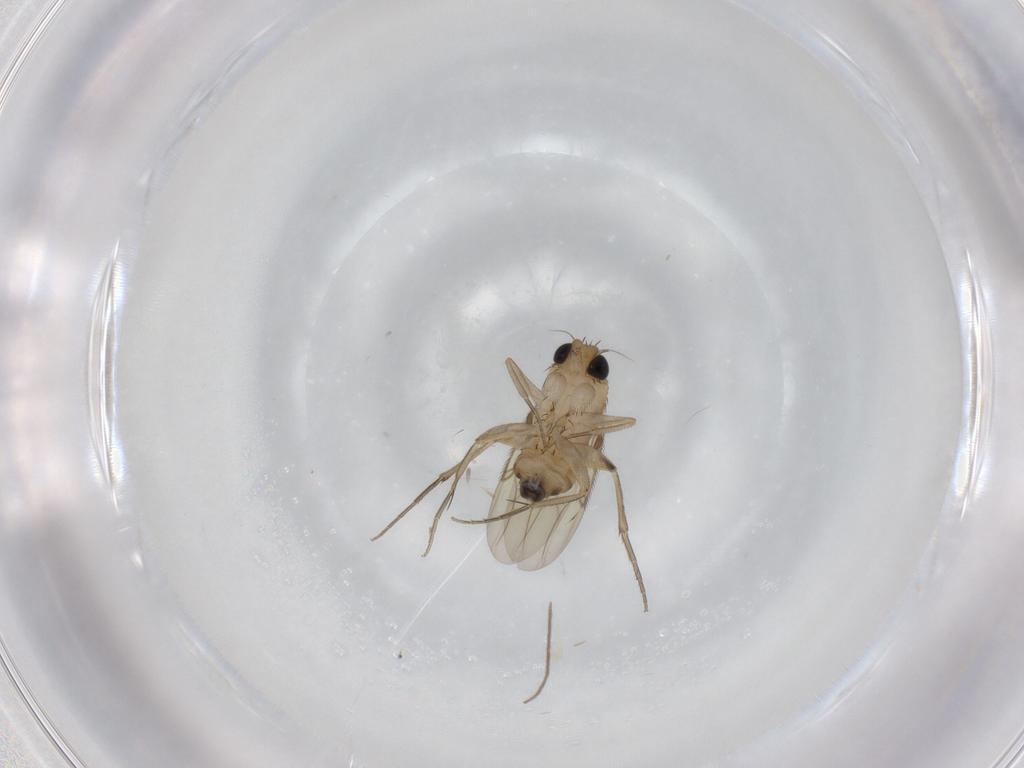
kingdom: Animalia
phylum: Arthropoda
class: Insecta
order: Diptera
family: Phoridae
